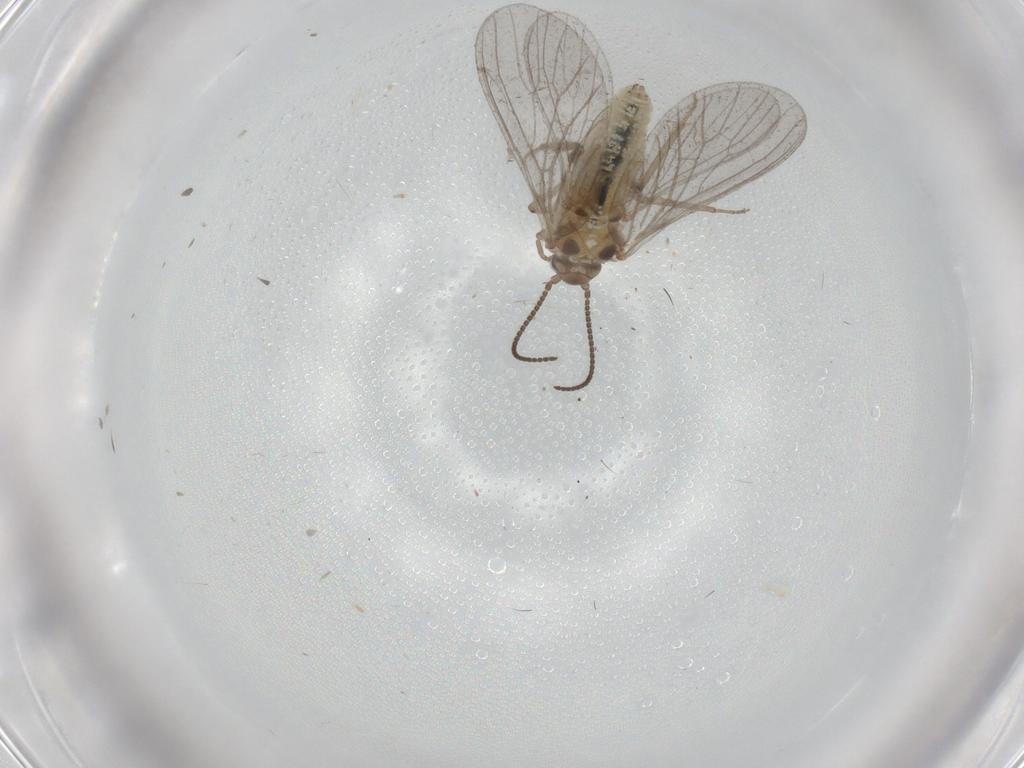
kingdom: Animalia
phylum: Arthropoda
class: Insecta
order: Neuroptera
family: Coniopterygidae
